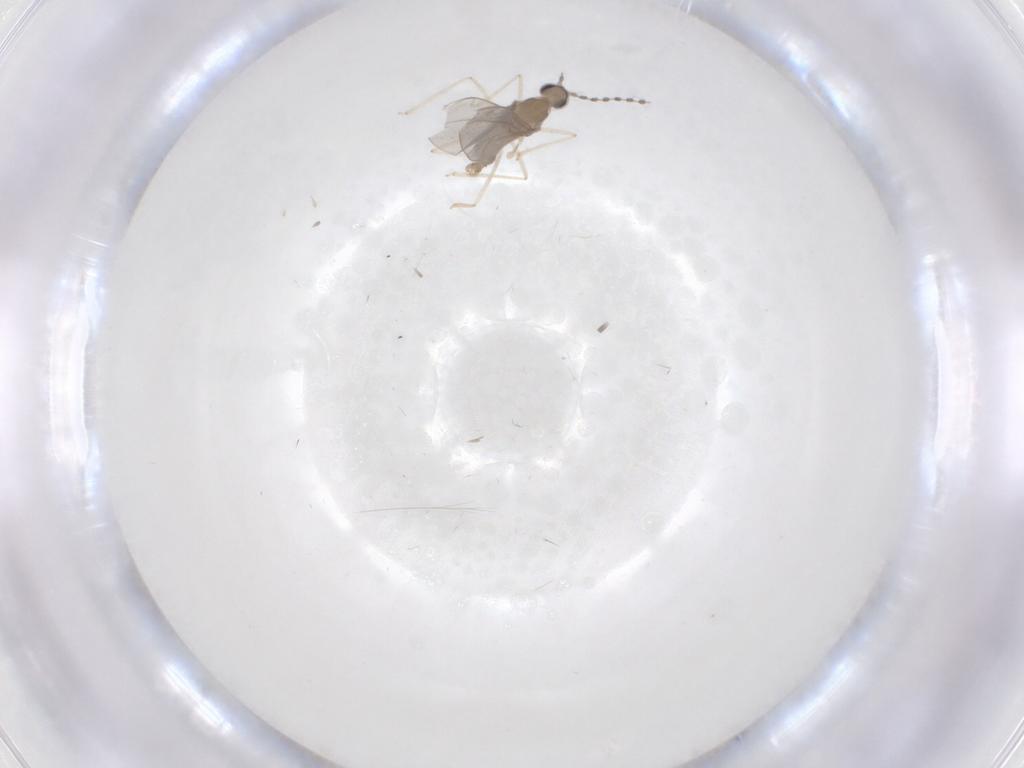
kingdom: Animalia
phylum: Arthropoda
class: Insecta
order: Diptera
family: Cecidomyiidae
